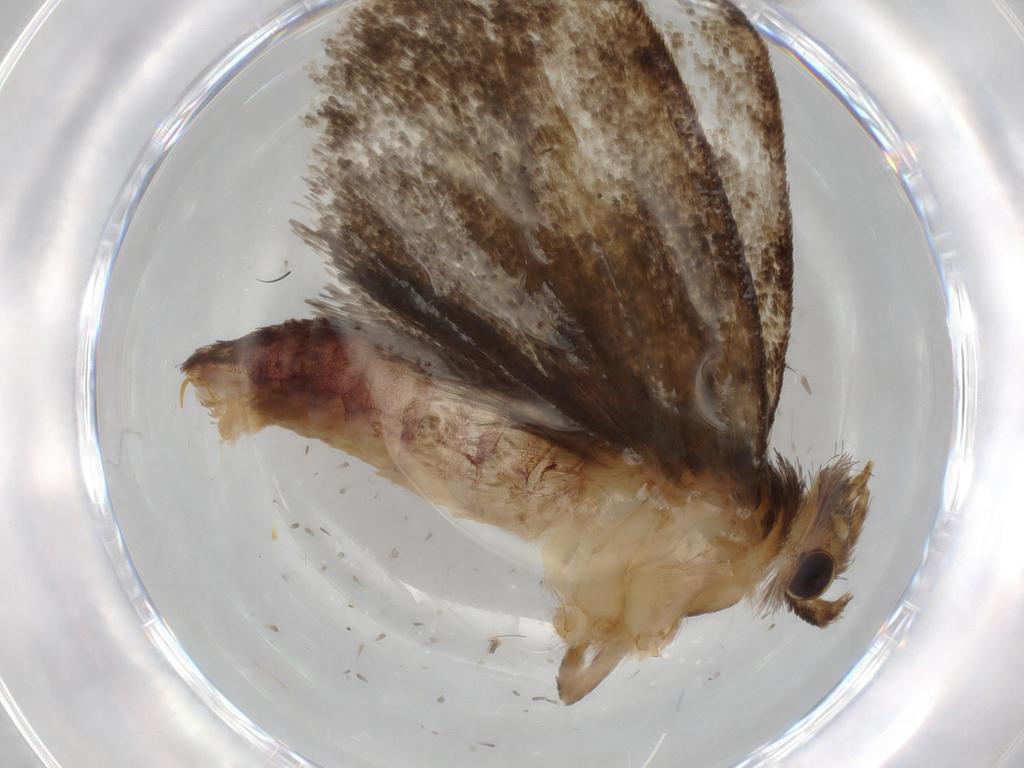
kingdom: Animalia
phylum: Arthropoda
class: Insecta
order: Lepidoptera
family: Tineidae
